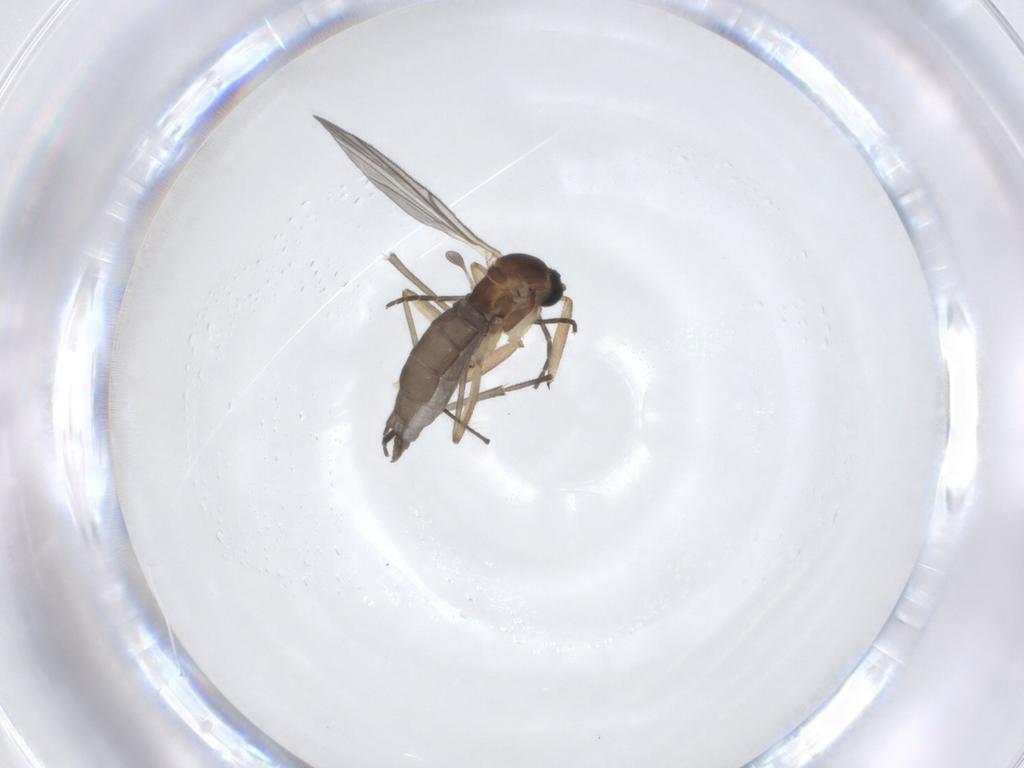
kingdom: Animalia
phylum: Arthropoda
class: Insecta
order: Diptera
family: Sciaridae
